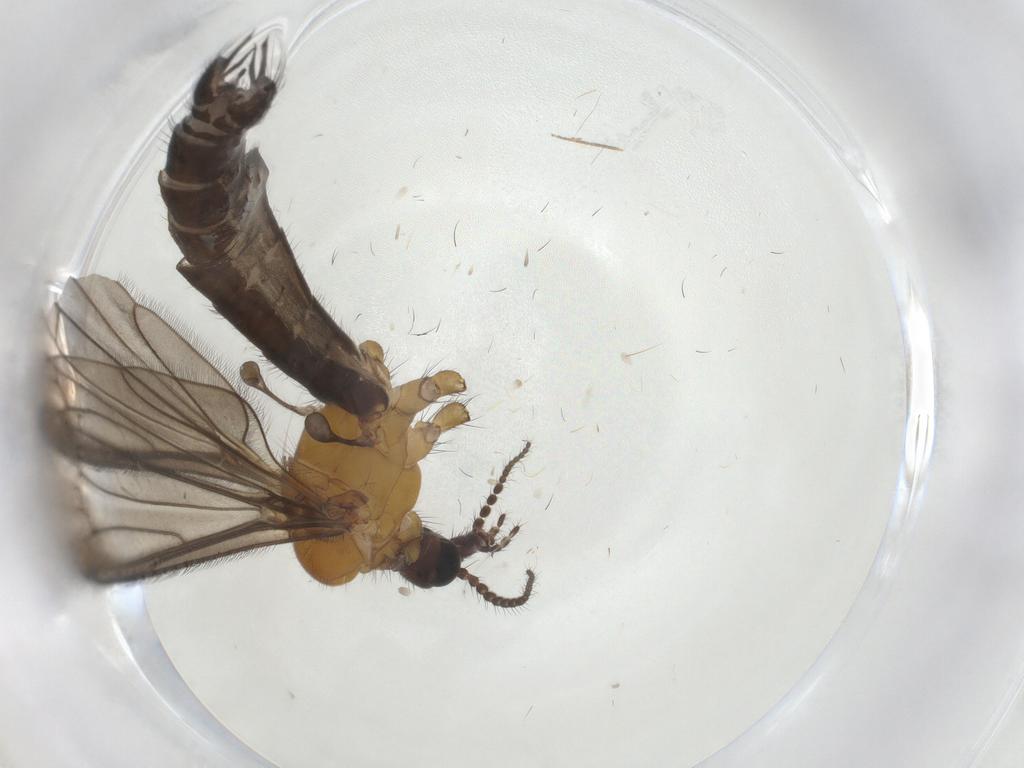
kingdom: Animalia
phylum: Arthropoda
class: Insecta
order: Diptera
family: Limoniidae
